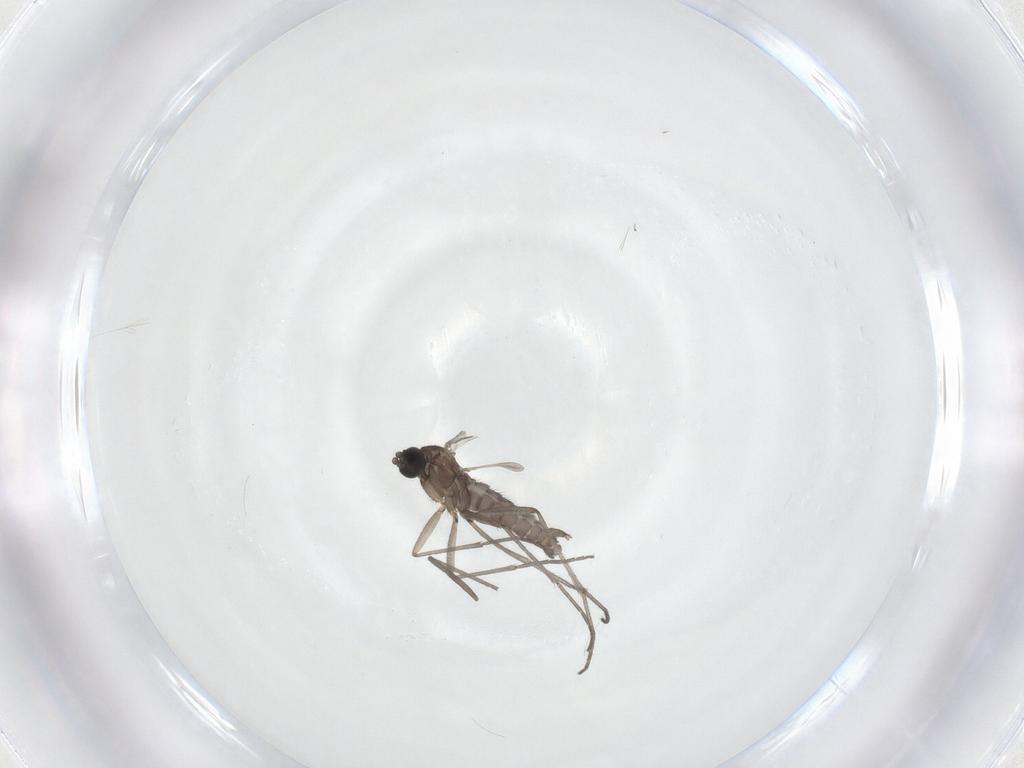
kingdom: Animalia
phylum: Arthropoda
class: Insecta
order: Diptera
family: Sciaridae
